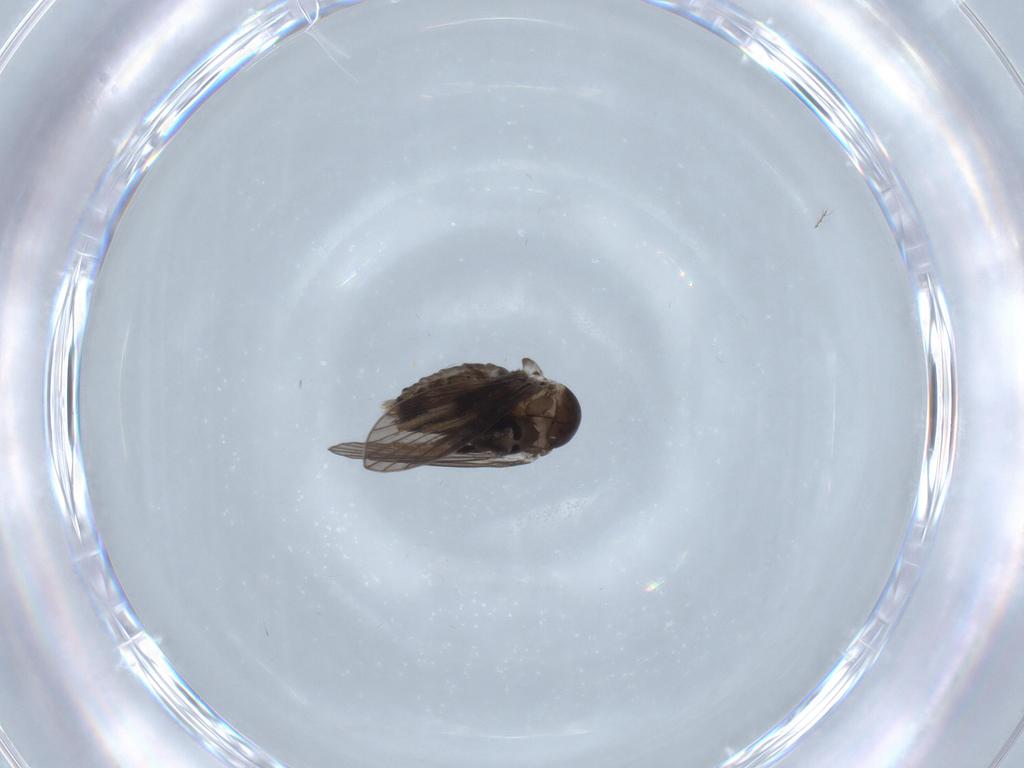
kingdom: Animalia
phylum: Arthropoda
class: Insecta
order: Diptera
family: Psychodidae
